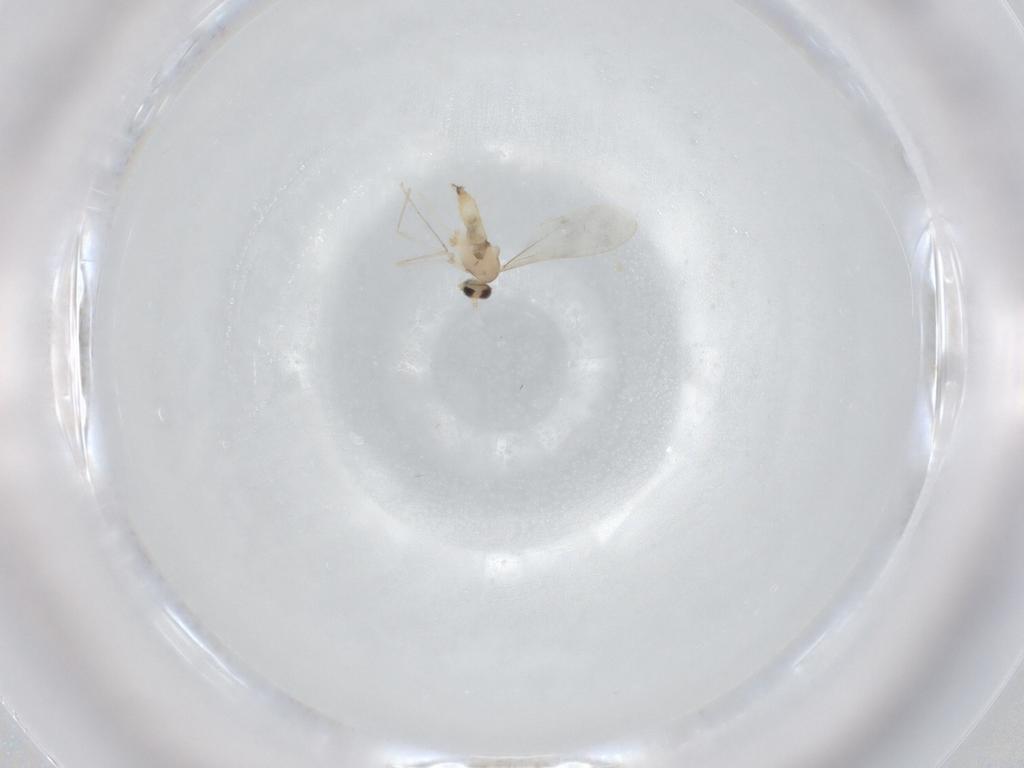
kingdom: Animalia
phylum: Arthropoda
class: Insecta
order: Diptera
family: Cecidomyiidae
